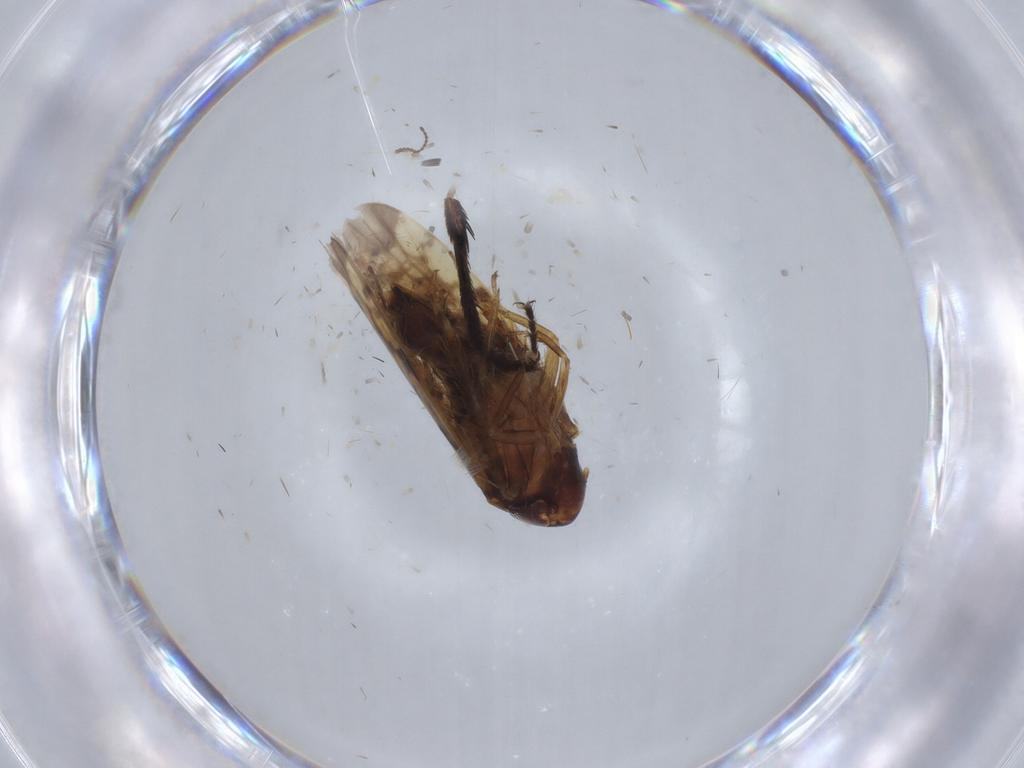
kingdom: Animalia
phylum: Arthropoda
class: Insecta
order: Hemiptera
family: Cicadellidae
